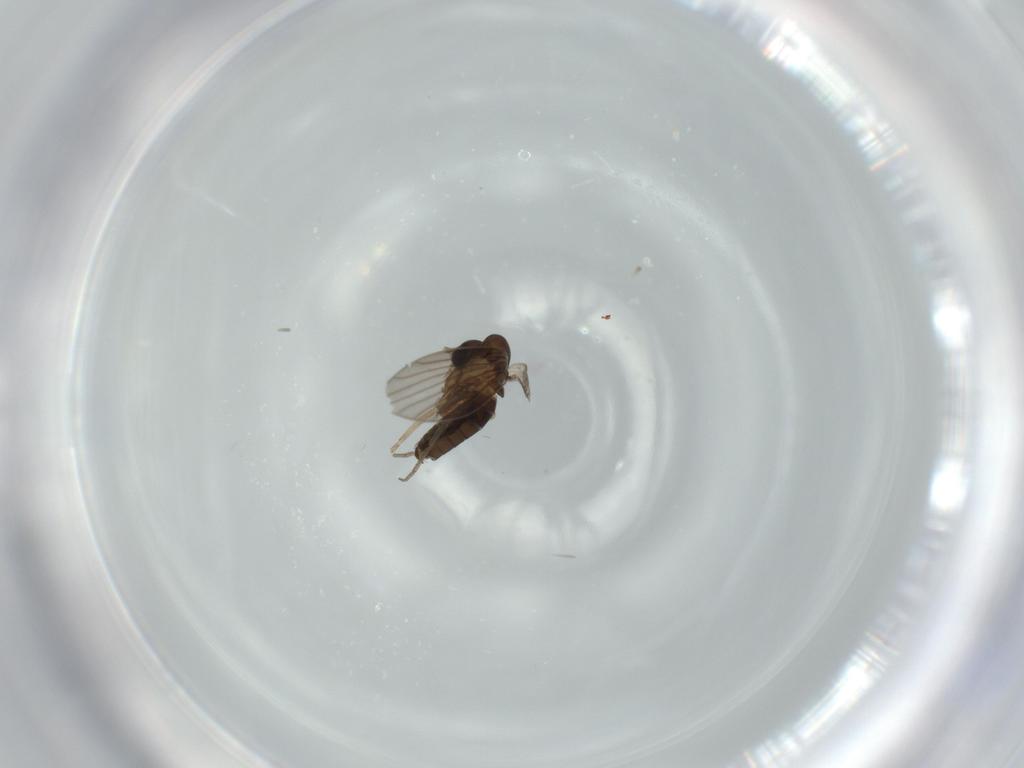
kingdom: Animalia
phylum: Arthropoda
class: Insecta
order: Diptera
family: Psychodidae
